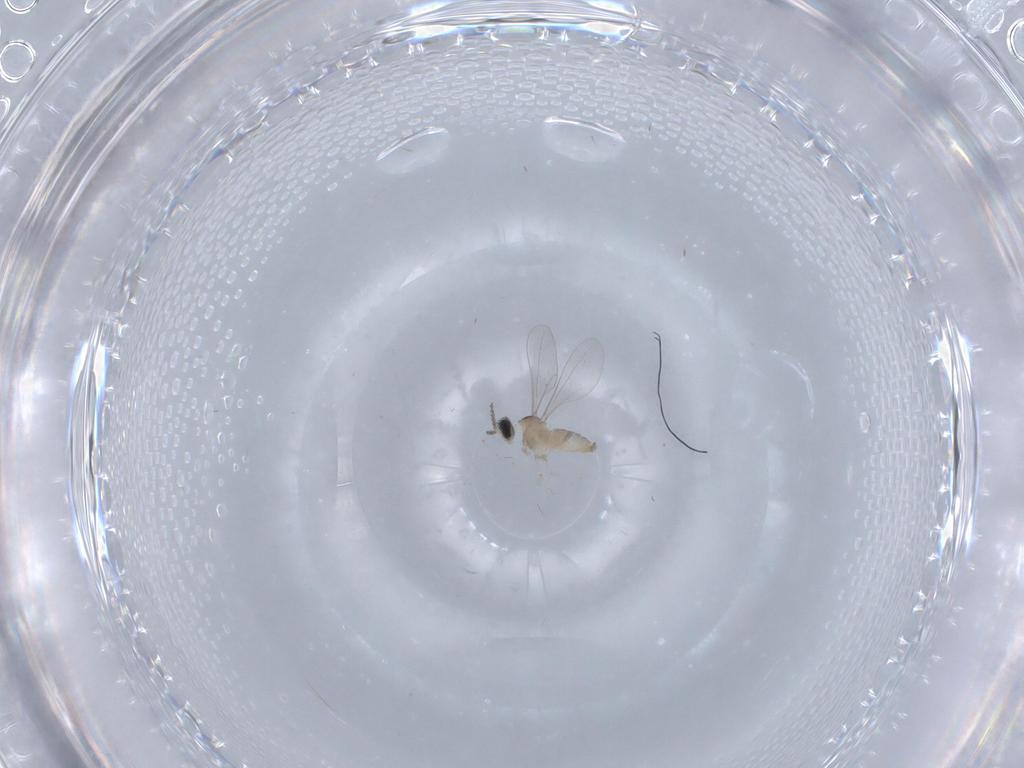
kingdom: Animalia
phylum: Arthropoda
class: Insecta
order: Diptera
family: Cecidomyiidae
